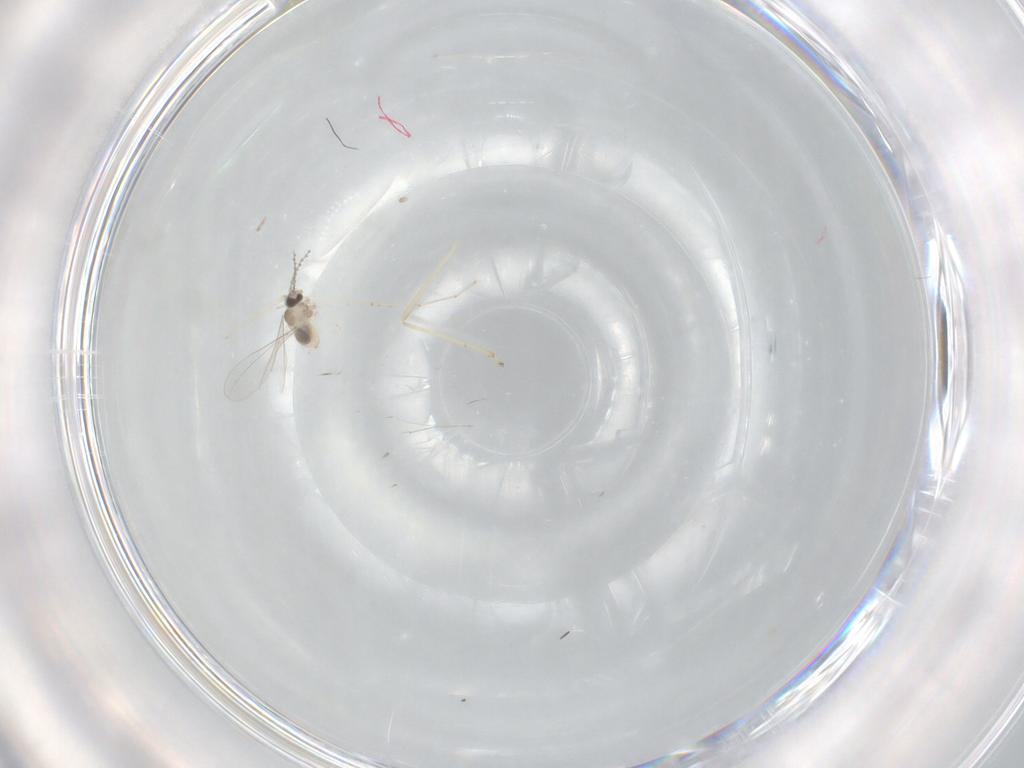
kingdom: Animalia
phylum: Arthropoda
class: Insecta
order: Diptera
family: Cecidomyiidae
